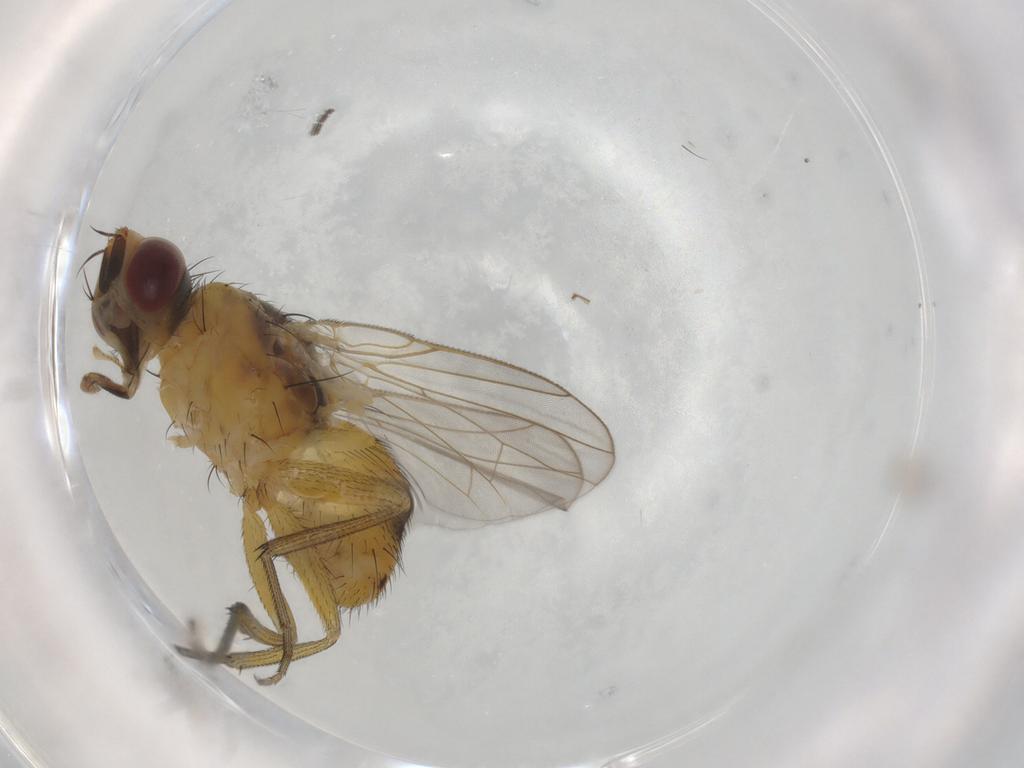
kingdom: Animalia
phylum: Arthropoda
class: Insecta
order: Diptera
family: Muscidae
